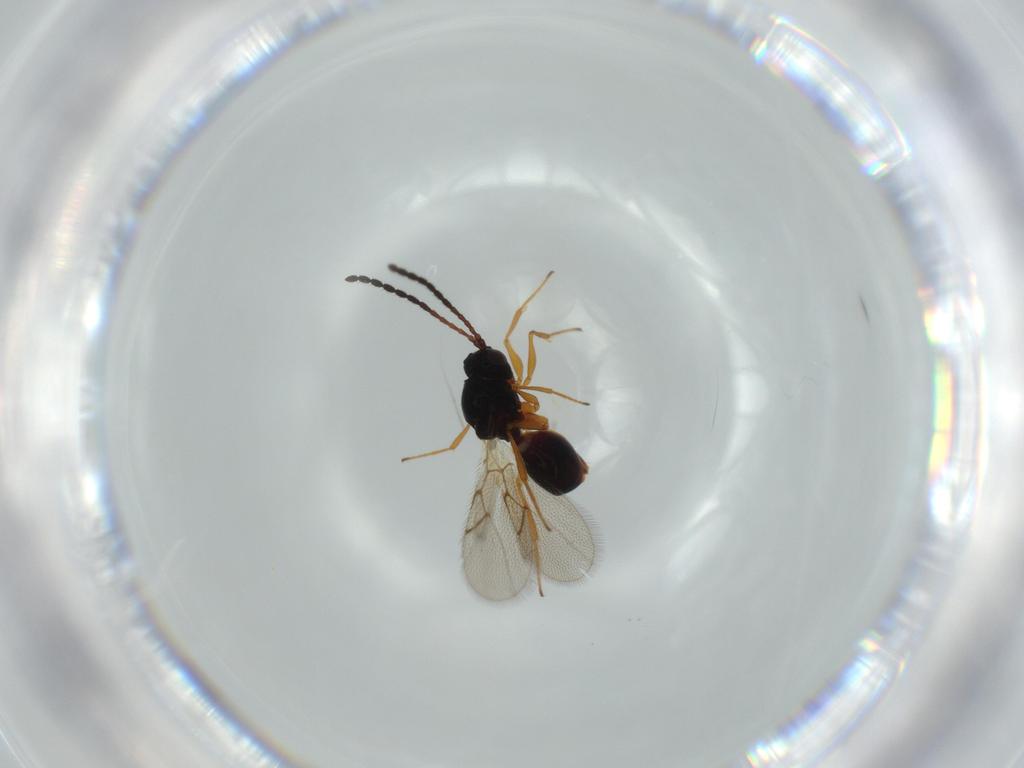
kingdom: Animalia
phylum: Arthropoda
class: Insecta
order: Hymenoptera
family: Figitidae
